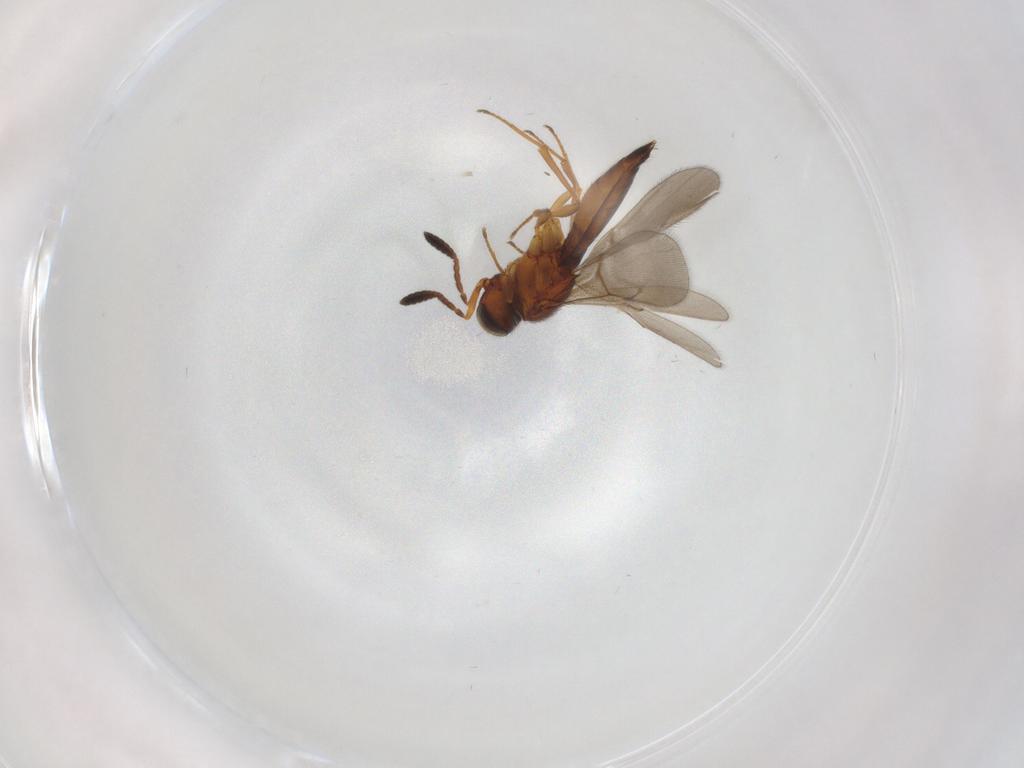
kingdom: Animalia
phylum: Arthropoda
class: Insecta
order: Hymenoptera
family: Scelionidae
